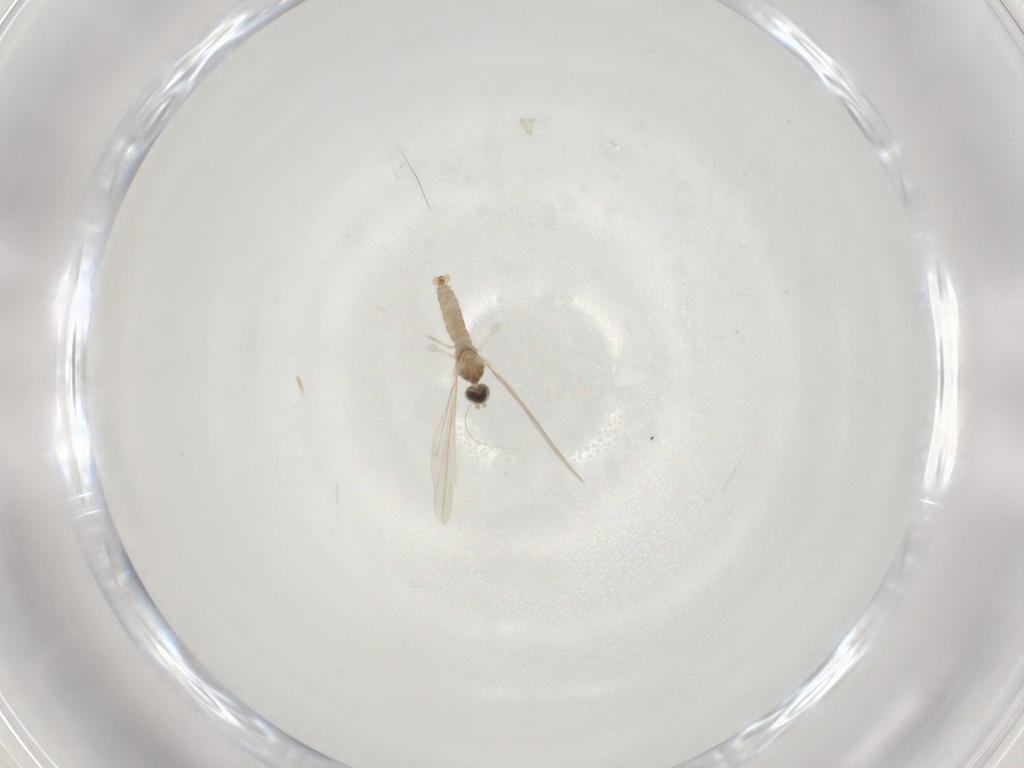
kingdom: Animalia
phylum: Arthropoda
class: Insecta
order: Diptera
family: Cecidomyiidae
